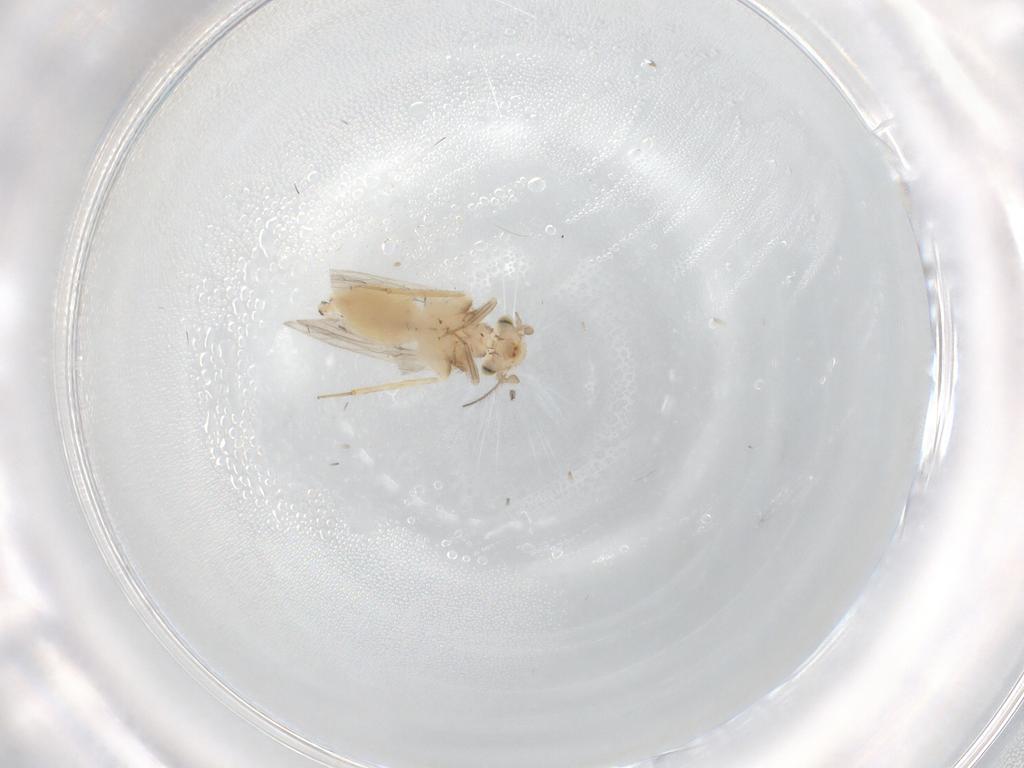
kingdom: Animalia
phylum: Arthropoda
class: Insecta
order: Psocodea
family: Lepidopsocidae
